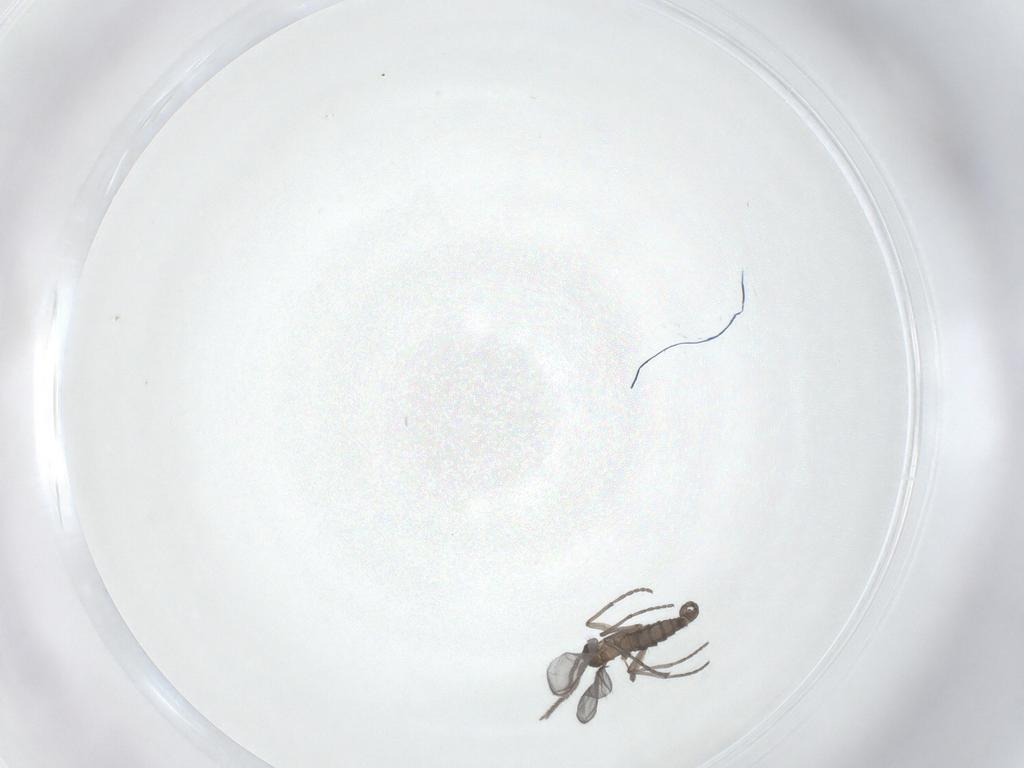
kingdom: Animalia
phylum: Arthropoda
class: Insecta
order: Diptera
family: Sciaridae
